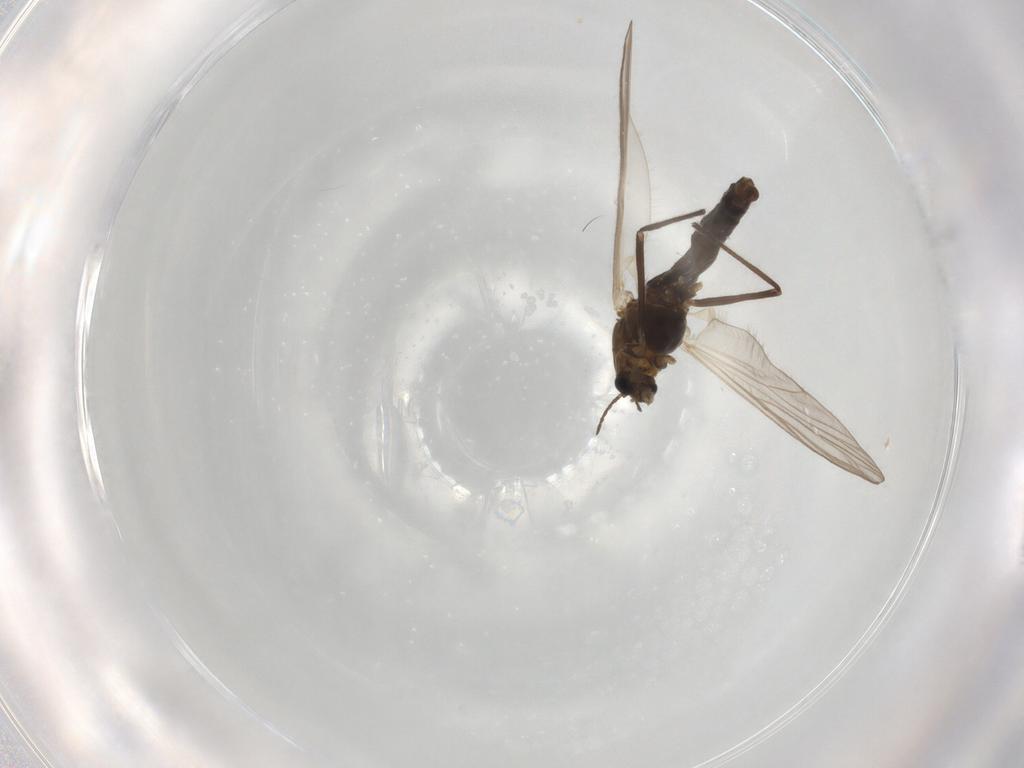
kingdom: Animalia
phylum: Arthropoda
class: Insecta
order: Diptera
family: Chironomidae
